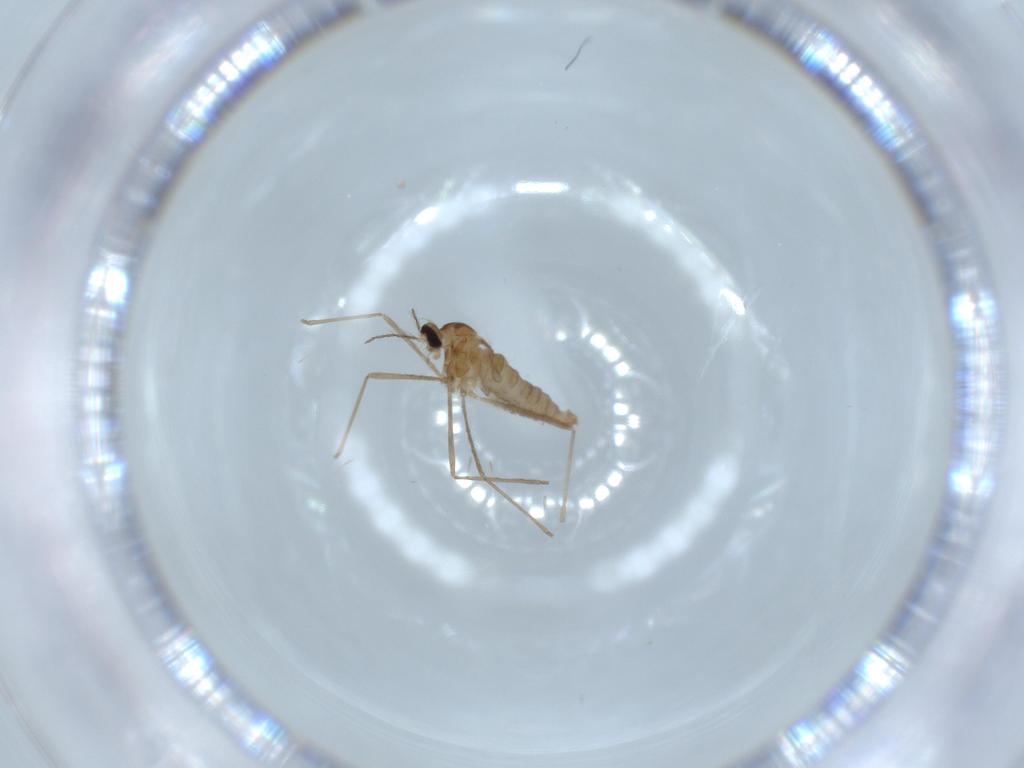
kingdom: Animalia
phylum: Arthropoda
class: Insecta
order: Diptera
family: Cecidomyiidae
